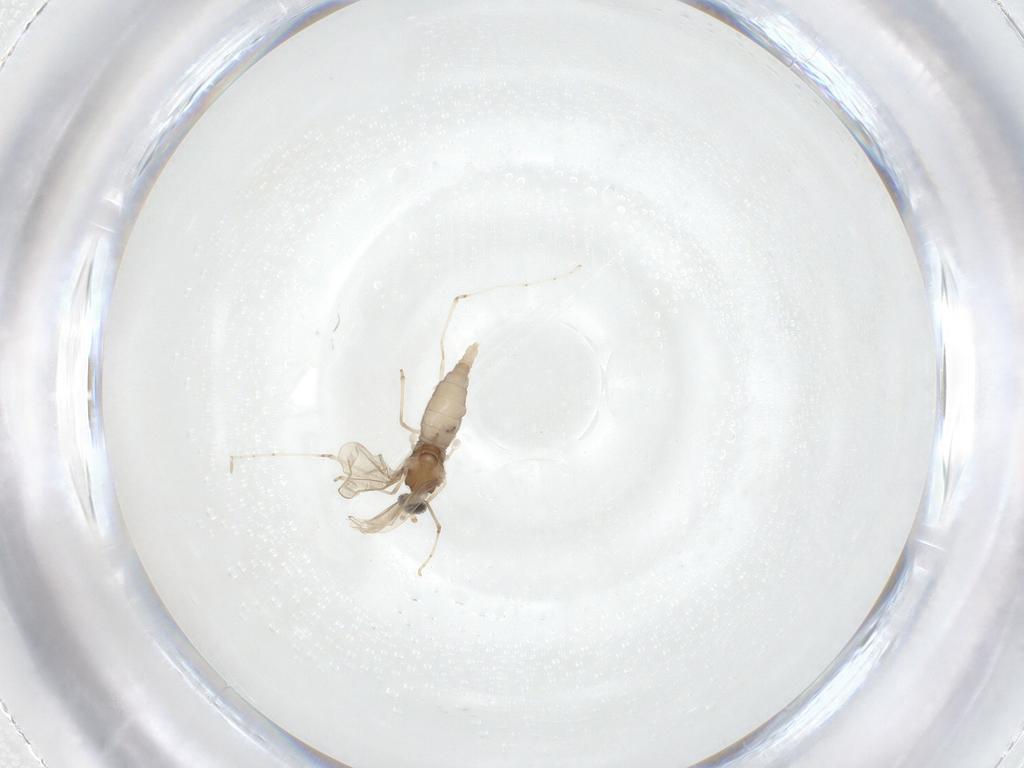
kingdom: Animalia
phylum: Arthropoda
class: Insecta
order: Diptera
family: Cecidomyiidae
